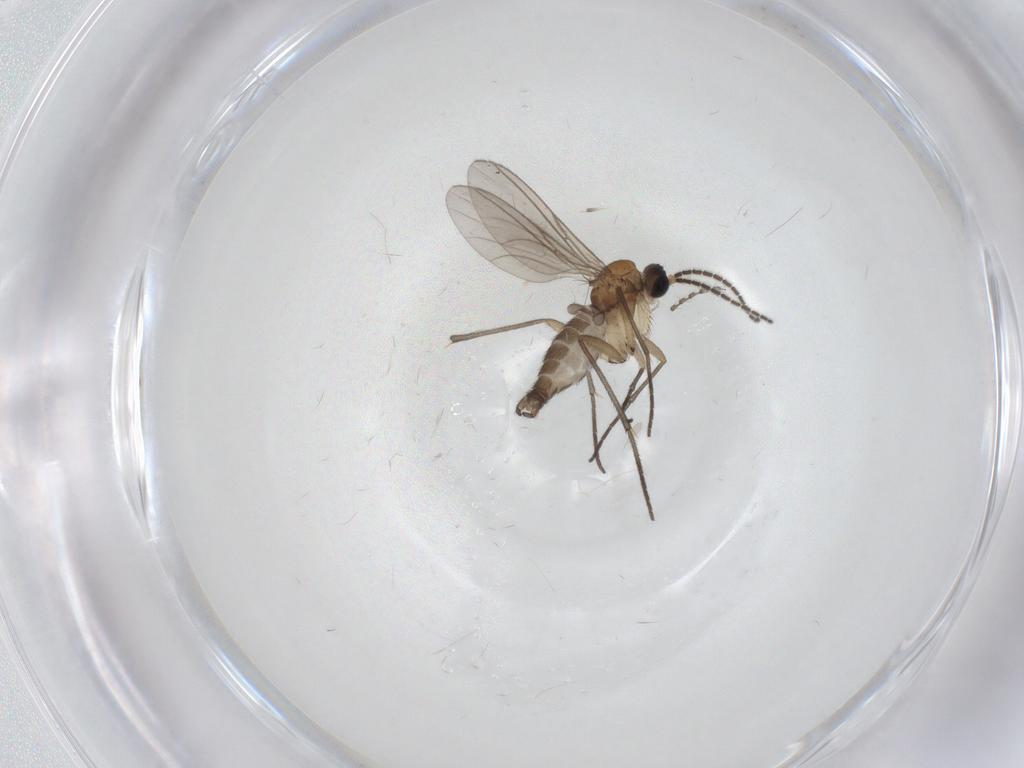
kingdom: Animalia
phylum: Arthropoda
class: Insecta
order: Diptera
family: Sciaridae
